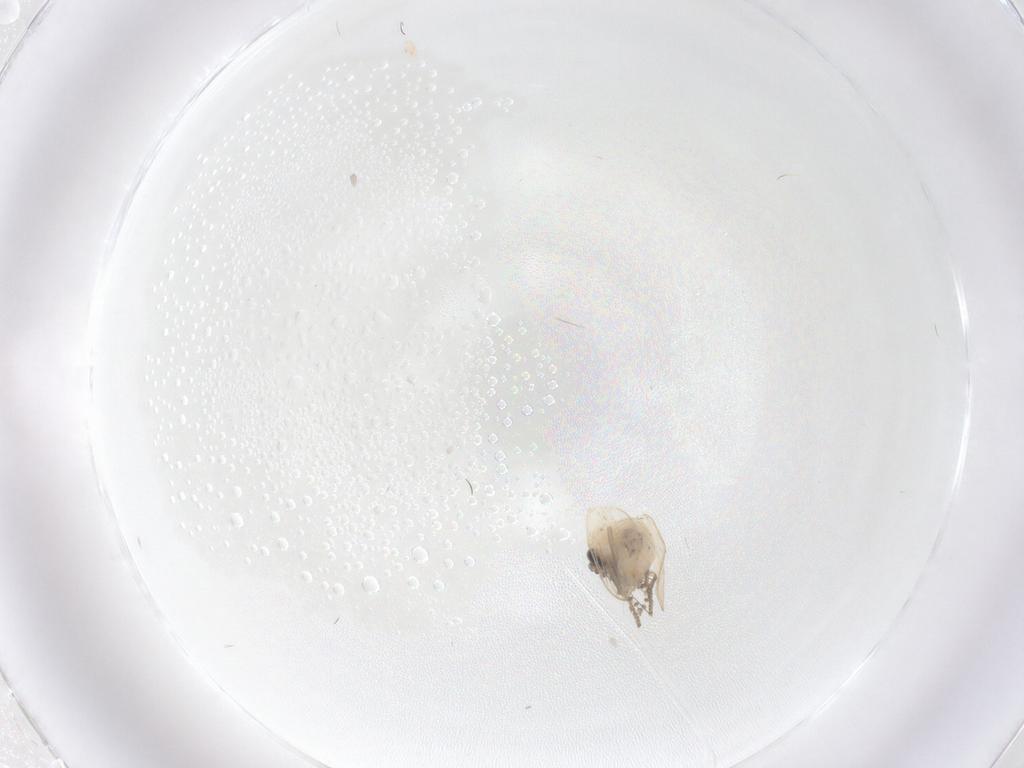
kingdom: Animalia
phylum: Arthropoda
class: Insecta
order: Diptera
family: Psychodidae
